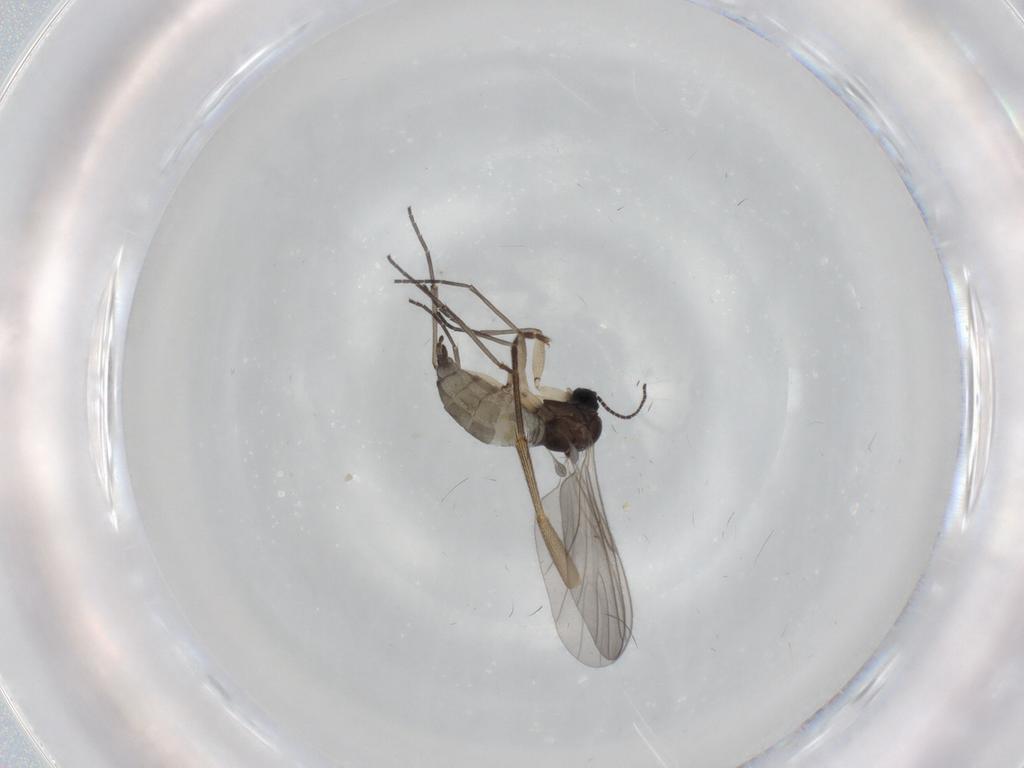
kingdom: Animalia
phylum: Arthropoda
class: Insecta
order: Diptera
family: Sciaridae
